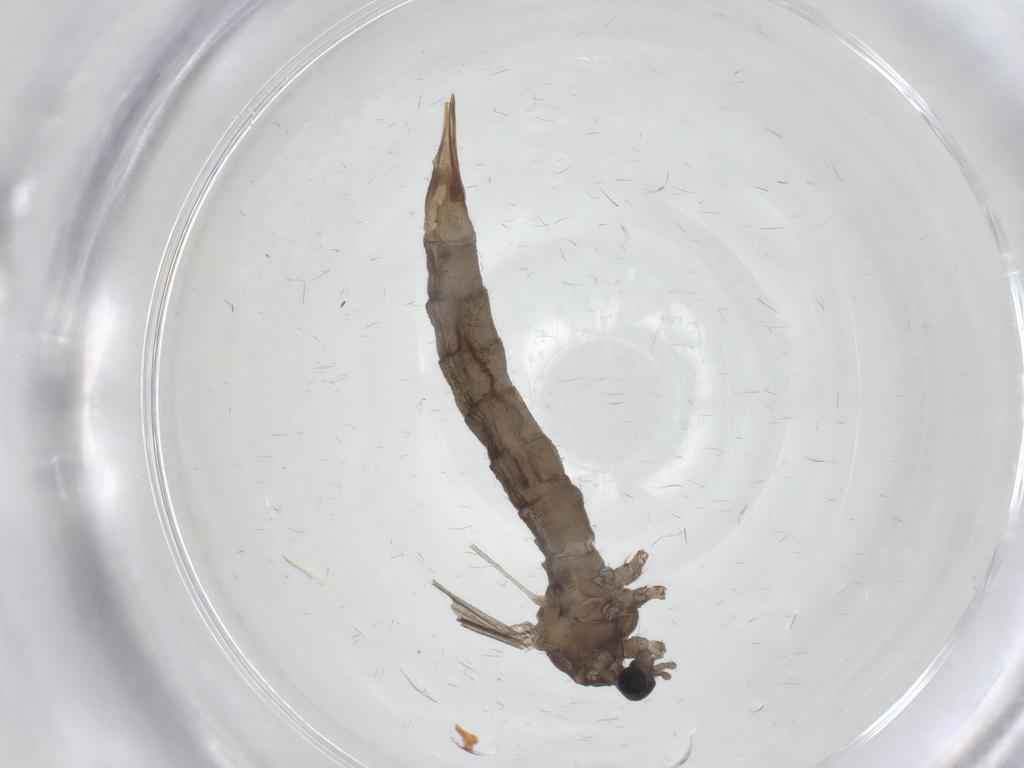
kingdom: Animalia
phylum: Arthropoda
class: Insecta
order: Diptera
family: Limoniidae
